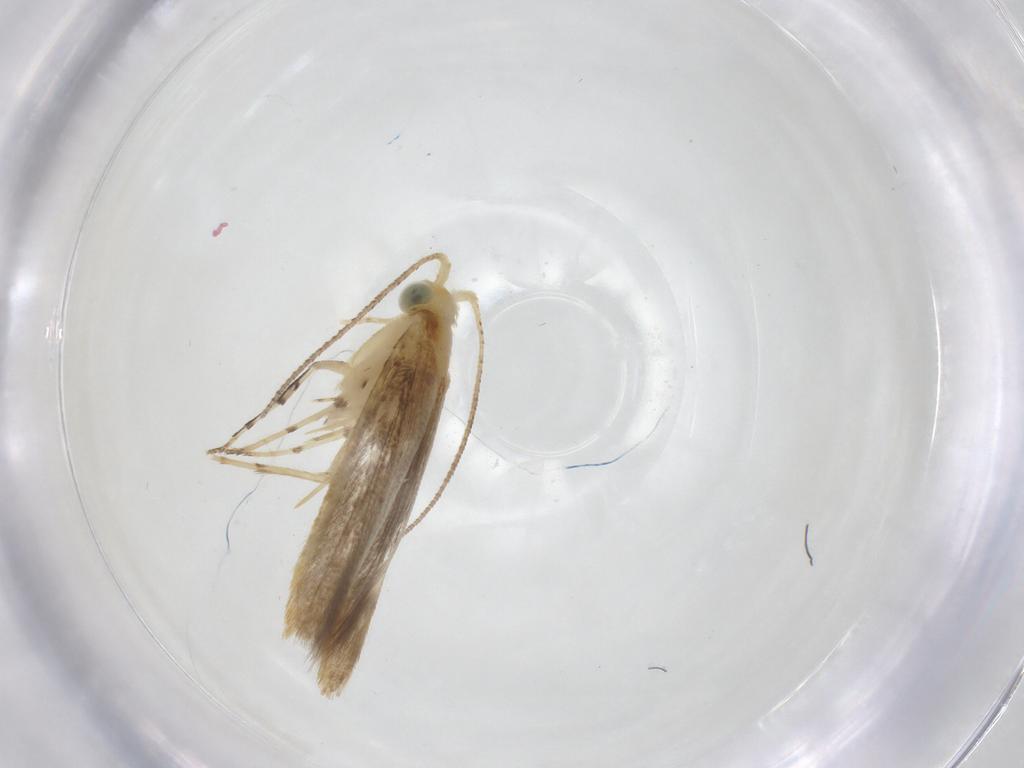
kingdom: Animalia
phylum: Arthropoda
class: Insecta
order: Lepidoptera
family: Argyresthiidae
